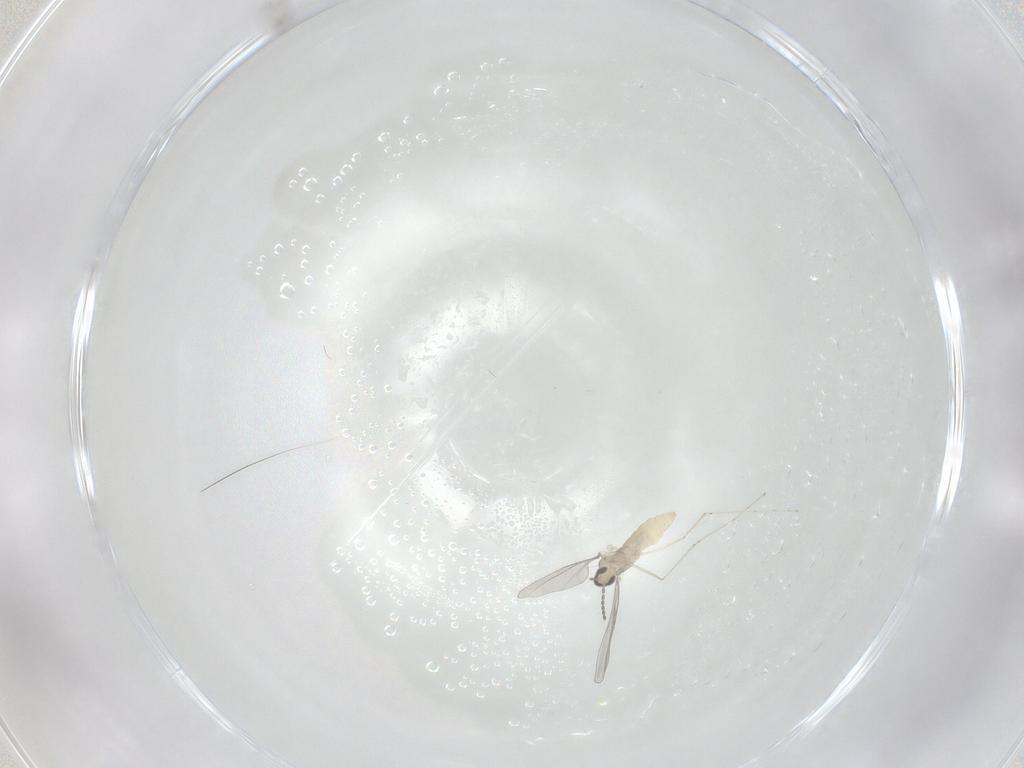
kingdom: Animalia
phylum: Arthropoda
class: Insecta
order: Diptera
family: Cecidomyiidae
